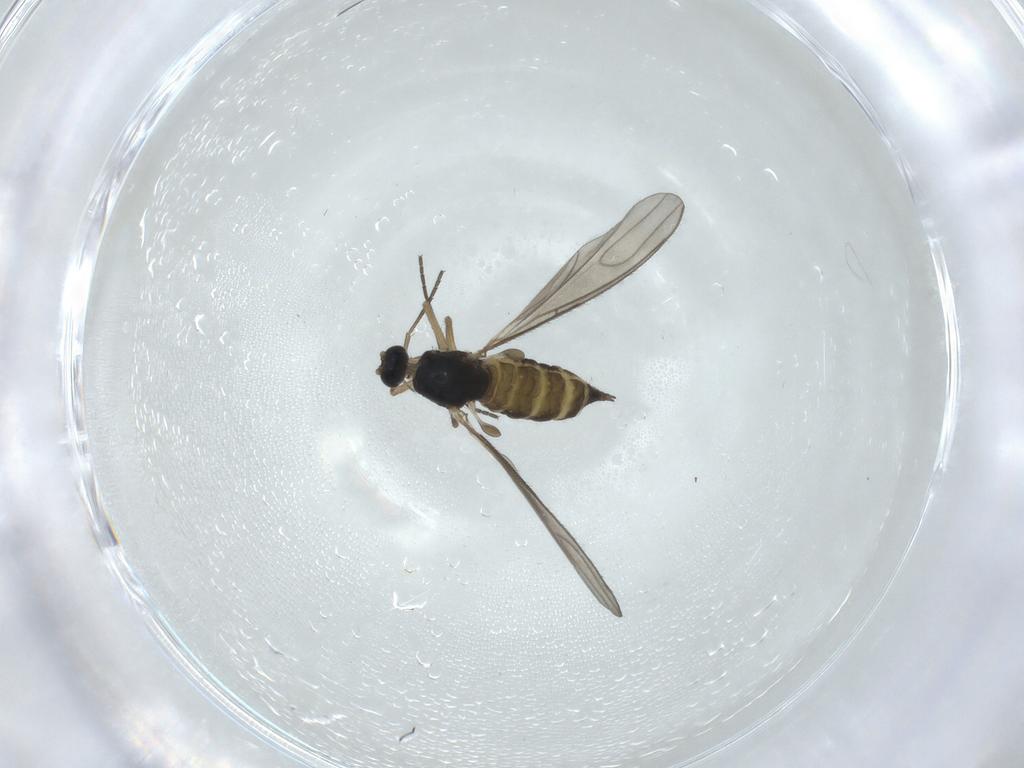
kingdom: Animalia
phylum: Arthropoda
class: Insecta
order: Diptera
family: Sciaridae
